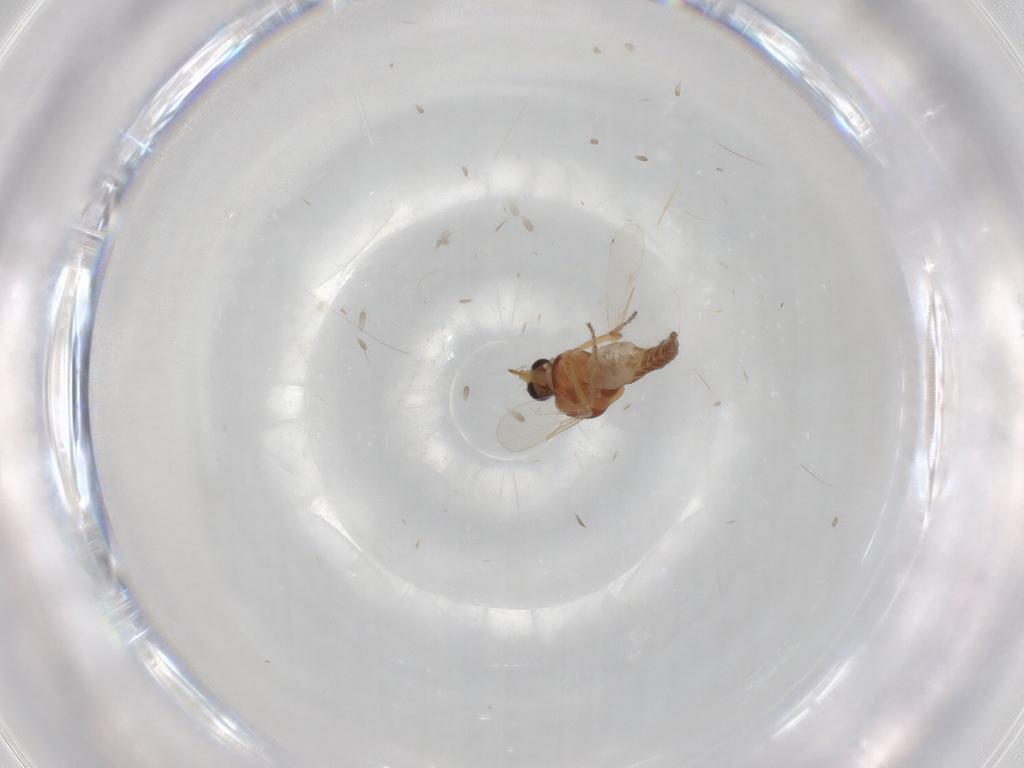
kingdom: Animalia
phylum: Arthropoda
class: Insecta
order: Diptera
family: Ceratopogonidae
